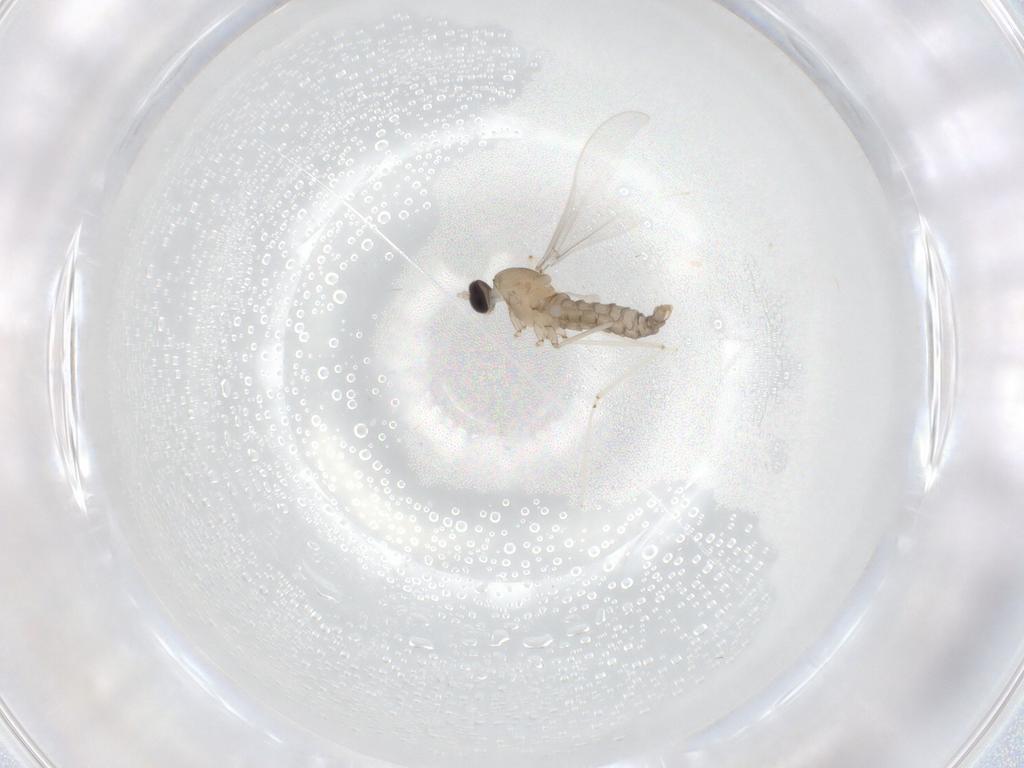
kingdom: Animalia
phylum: Arthropoda
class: Insecta
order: Diptera
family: Cecidomyiidae
